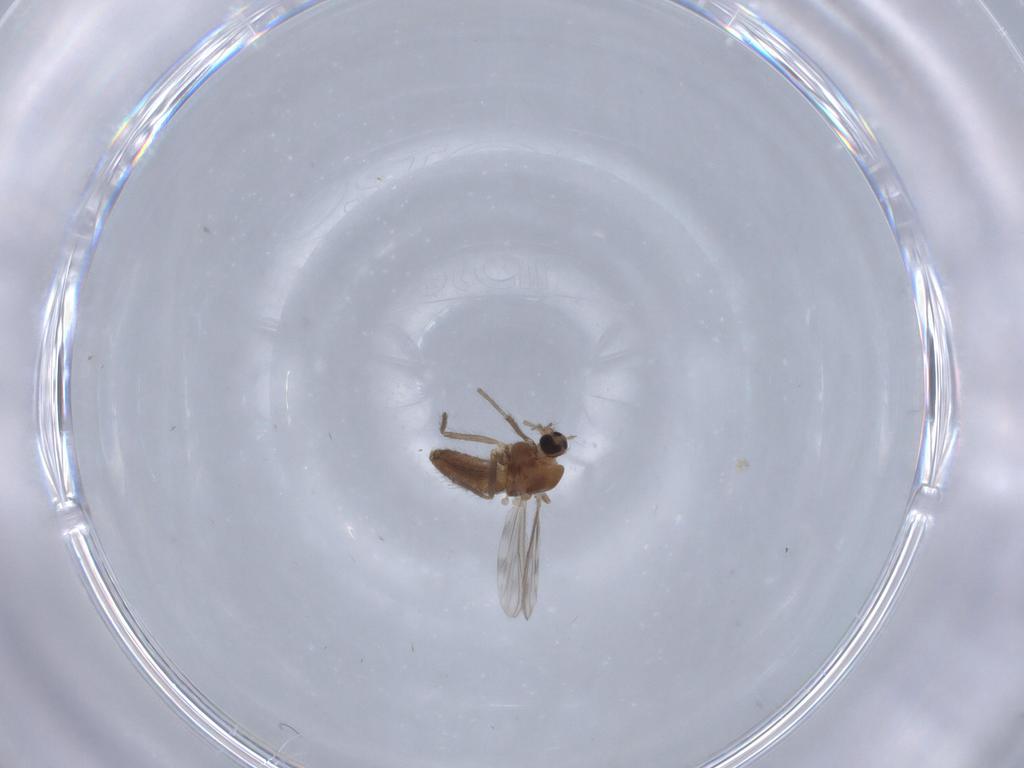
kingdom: Animalia
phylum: Arthropoda
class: Insecta
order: Diptera
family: Chironomidae
